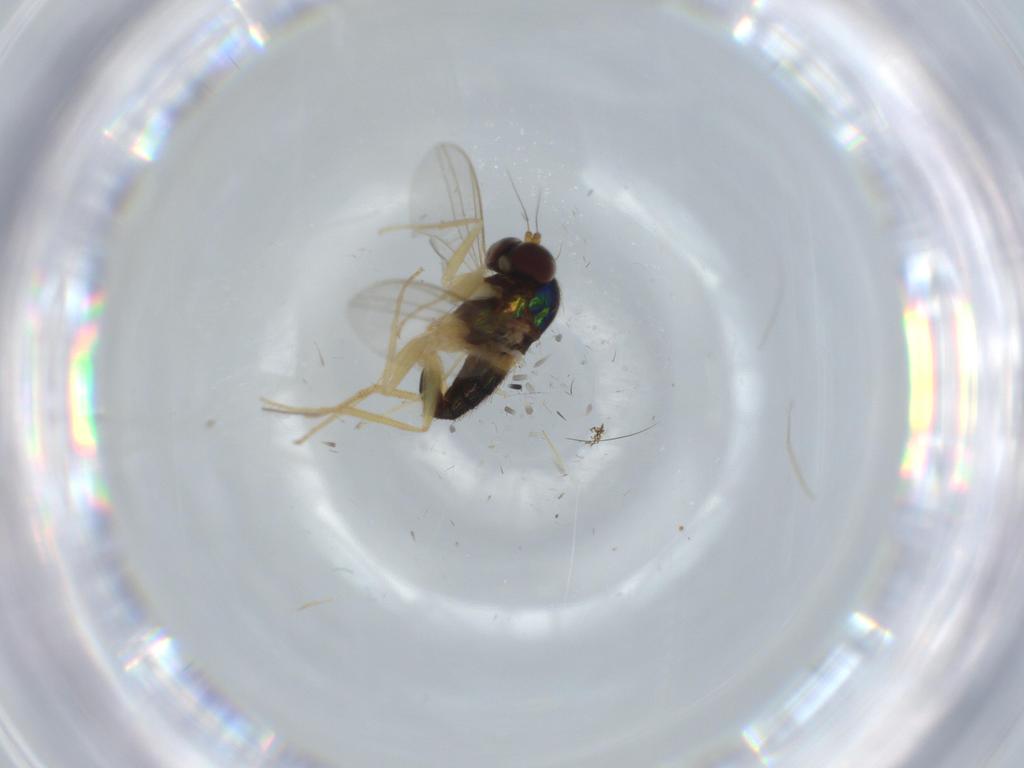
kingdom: Animalia
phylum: Arthropoda
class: Insecta
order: Diptera
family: Dolichopodidae
